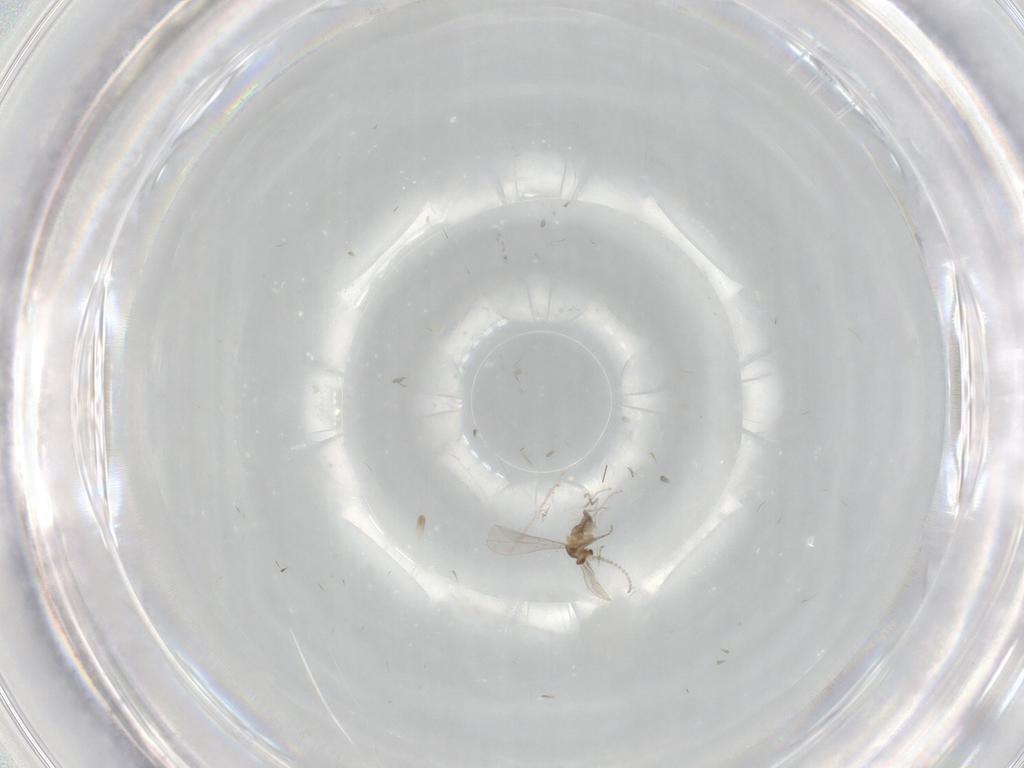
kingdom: Animalia
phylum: Arthropoda
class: Insecta
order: Diptera
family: Cecidomyiidae
